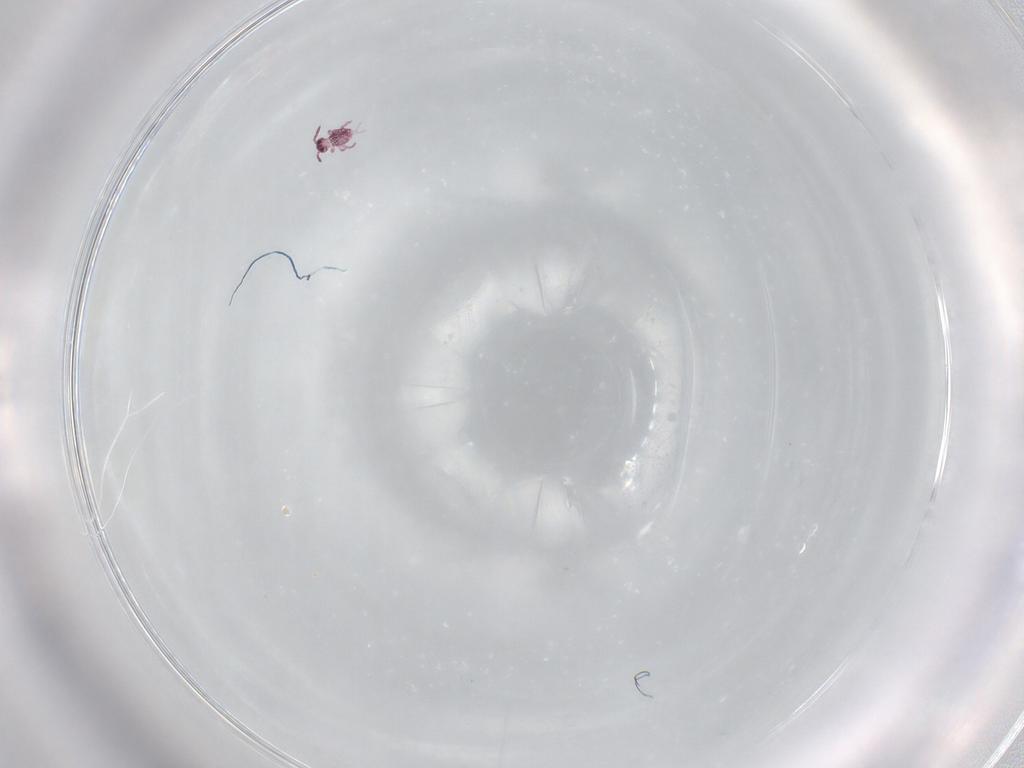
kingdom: Animalia
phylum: Arthropoda
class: Collembola
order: Symphypleona
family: Sminthurididae
